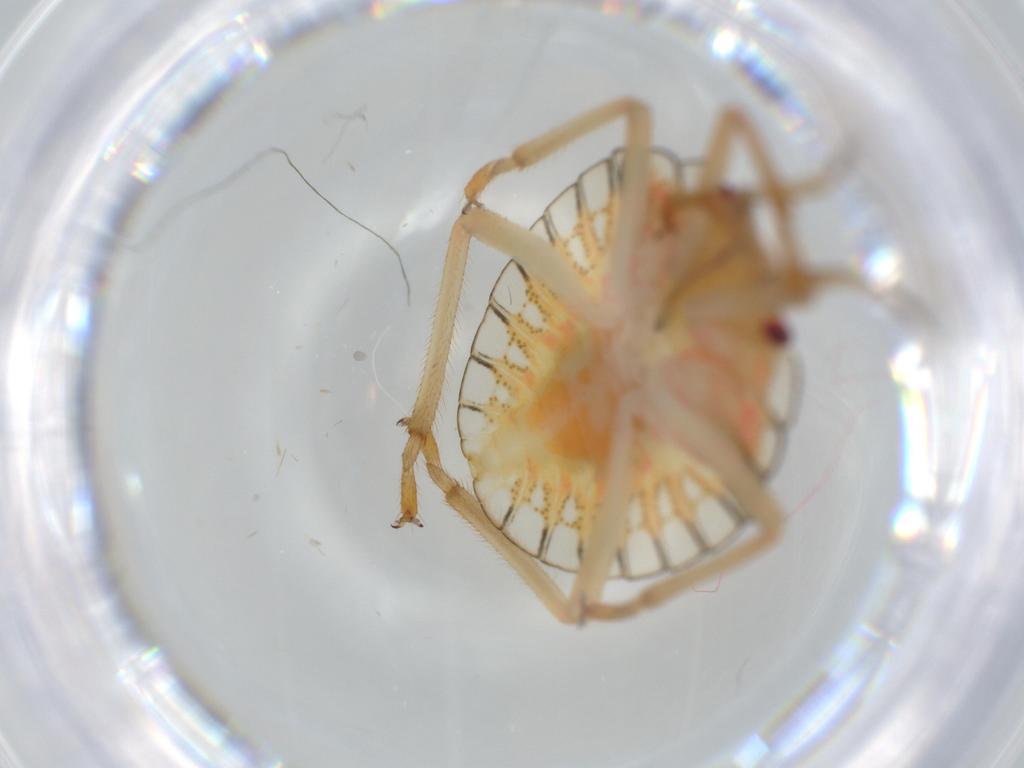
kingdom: Animalia
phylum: Arthropoda
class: Insecta
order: Hemiptera
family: Pentatomidae
